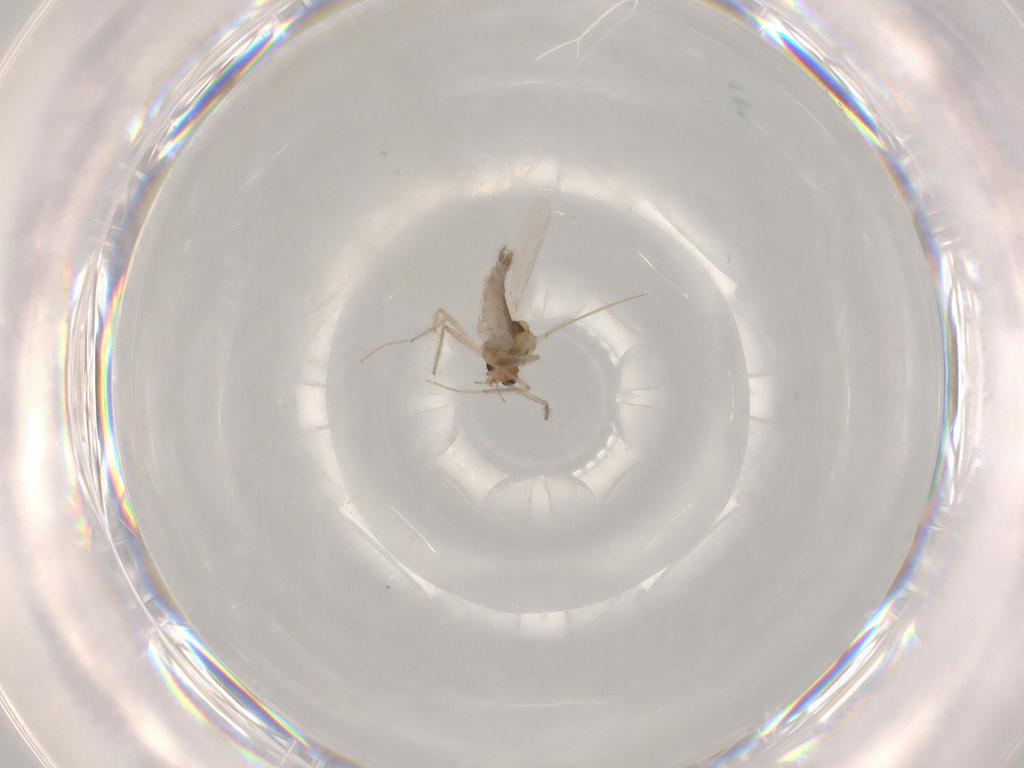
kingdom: Animalia
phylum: Arthropoda
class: Insecta
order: Diptera
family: Chironomidae
